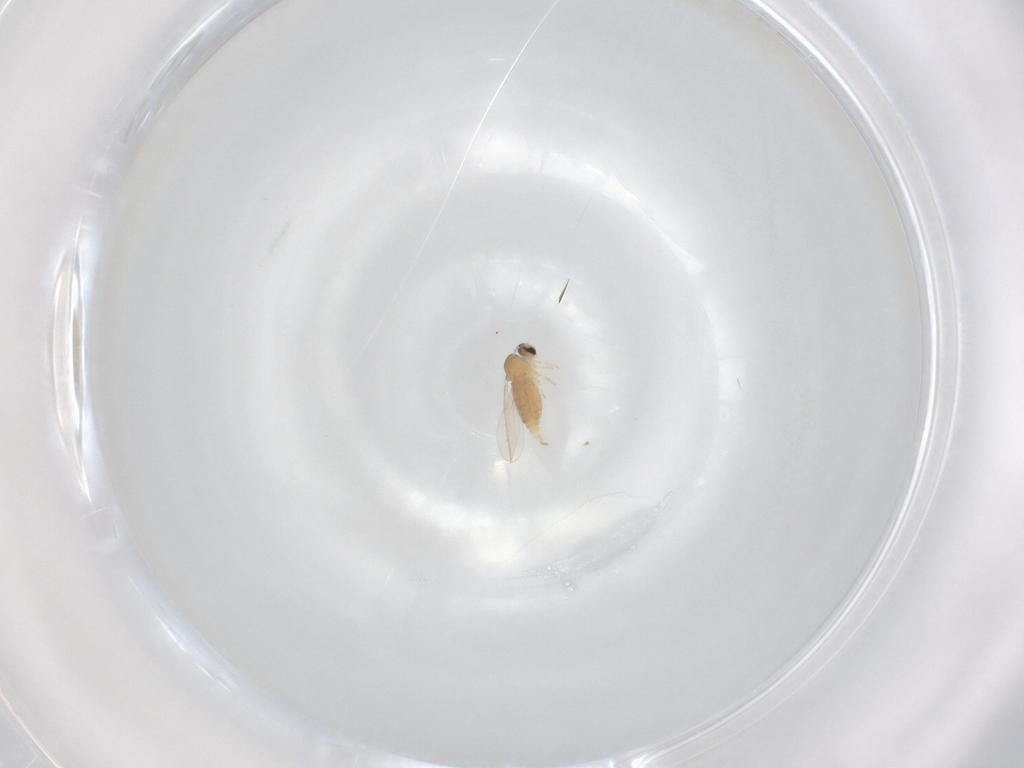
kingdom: Animalia
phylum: Arthropoda
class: Insecta
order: Diptera
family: Cecidomyiidae
